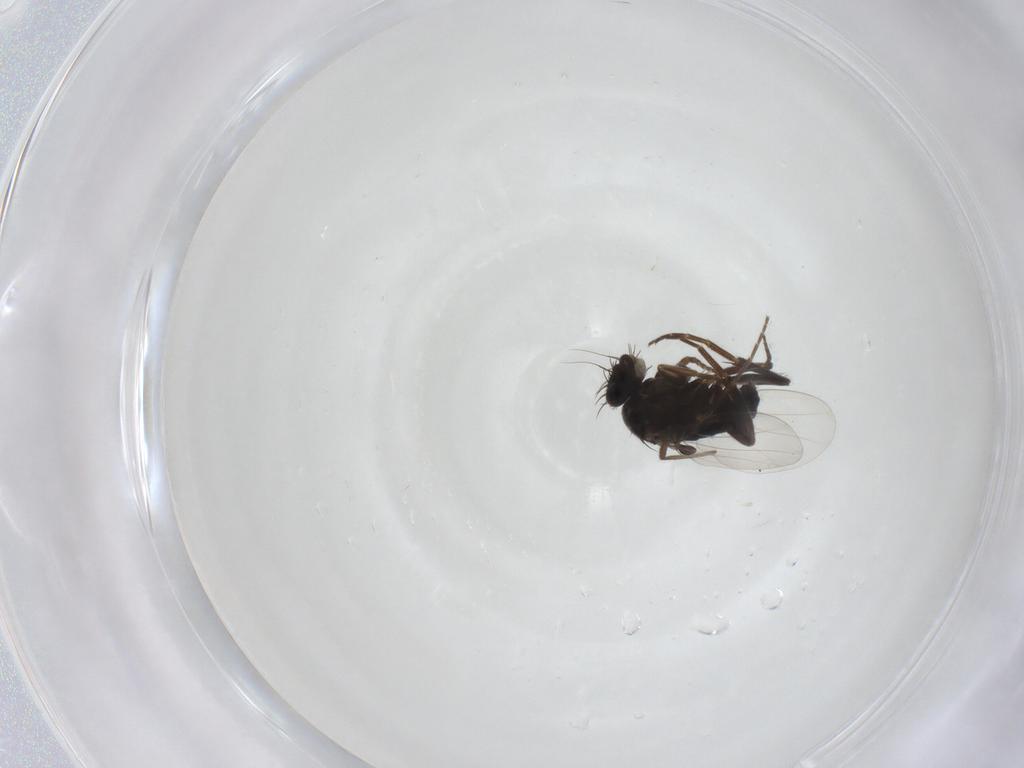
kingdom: Animalia
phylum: Arthropoda
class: Insecta
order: Diptera
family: Phoridae
